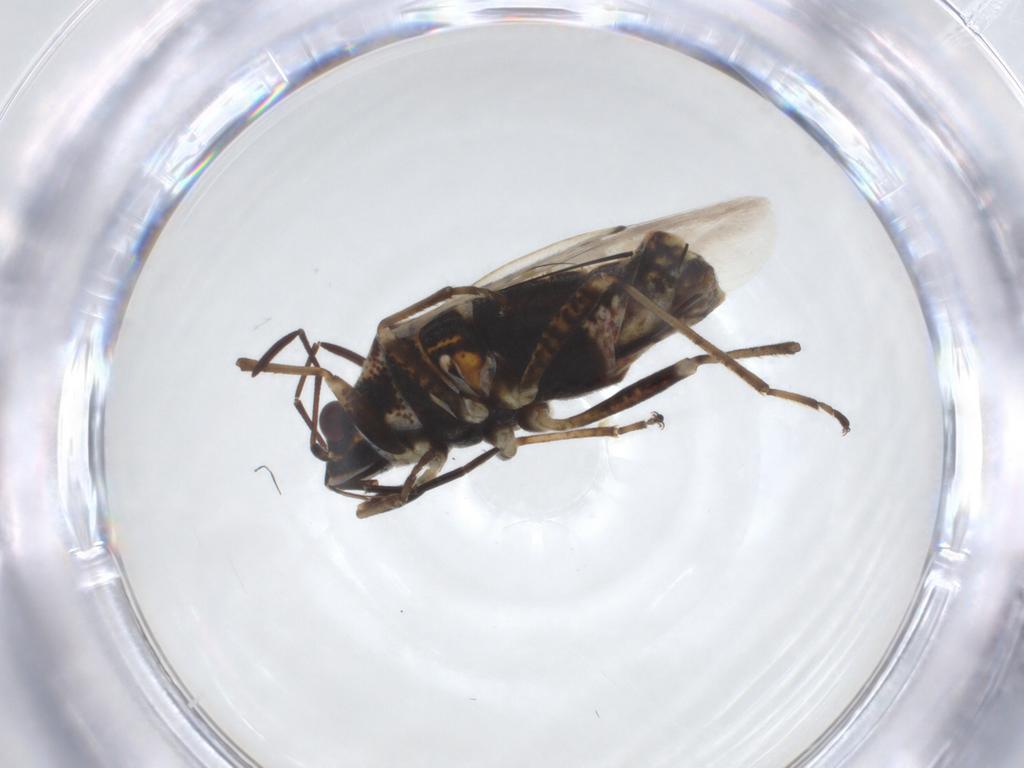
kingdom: Animalia
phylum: Arthropoda
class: Insecta
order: Hemiptera
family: Lygaeidae
